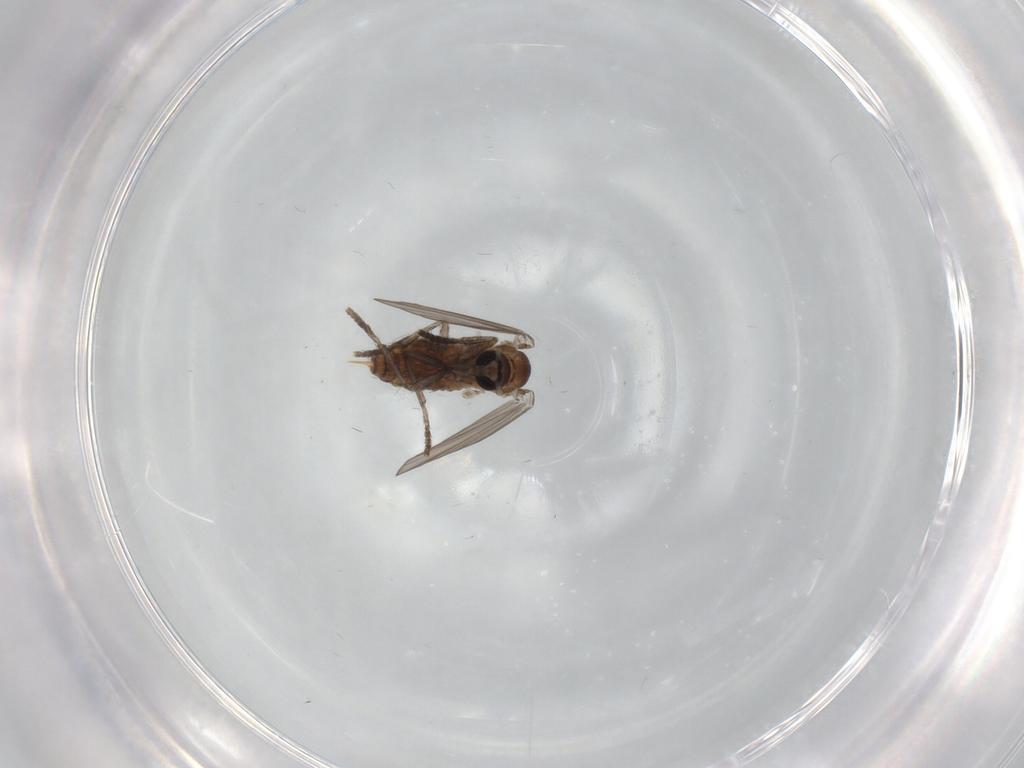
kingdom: Animalia
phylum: Arthropoda
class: Insecta
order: Diptera
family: Psychodidae
